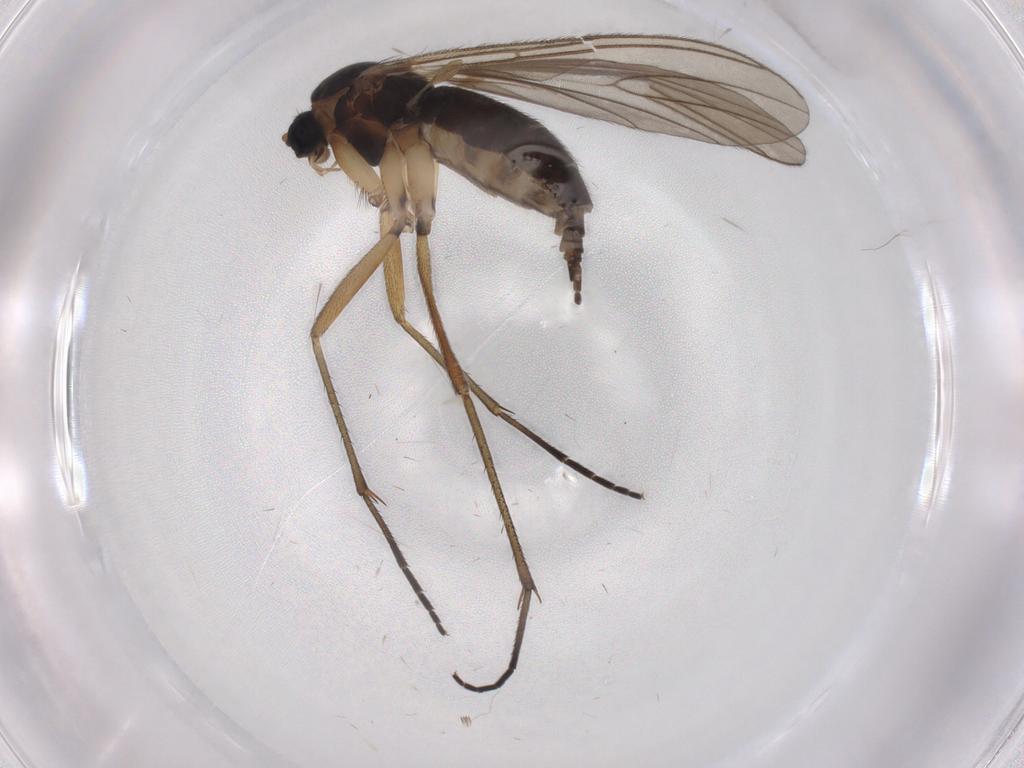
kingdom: Animalia
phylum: Arthropoda
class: Insecta
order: Diptera
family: Sciaridae
